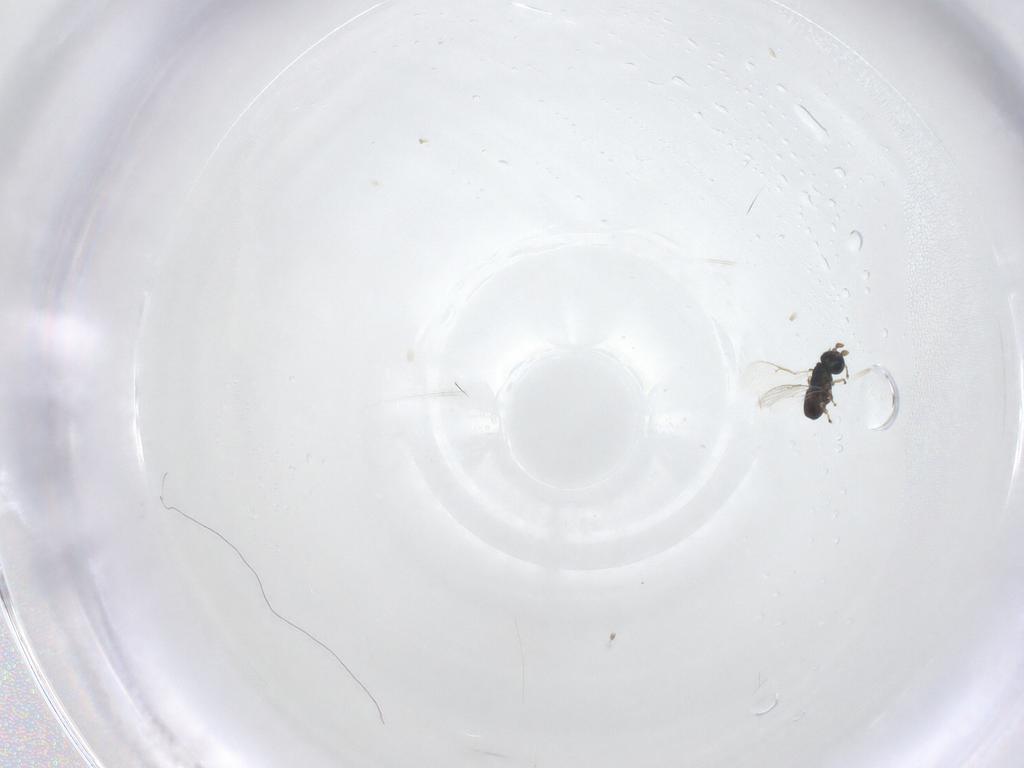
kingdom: Animalia
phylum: Arthropoda
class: Insecta
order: Hymenoptera
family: Eulophidae
